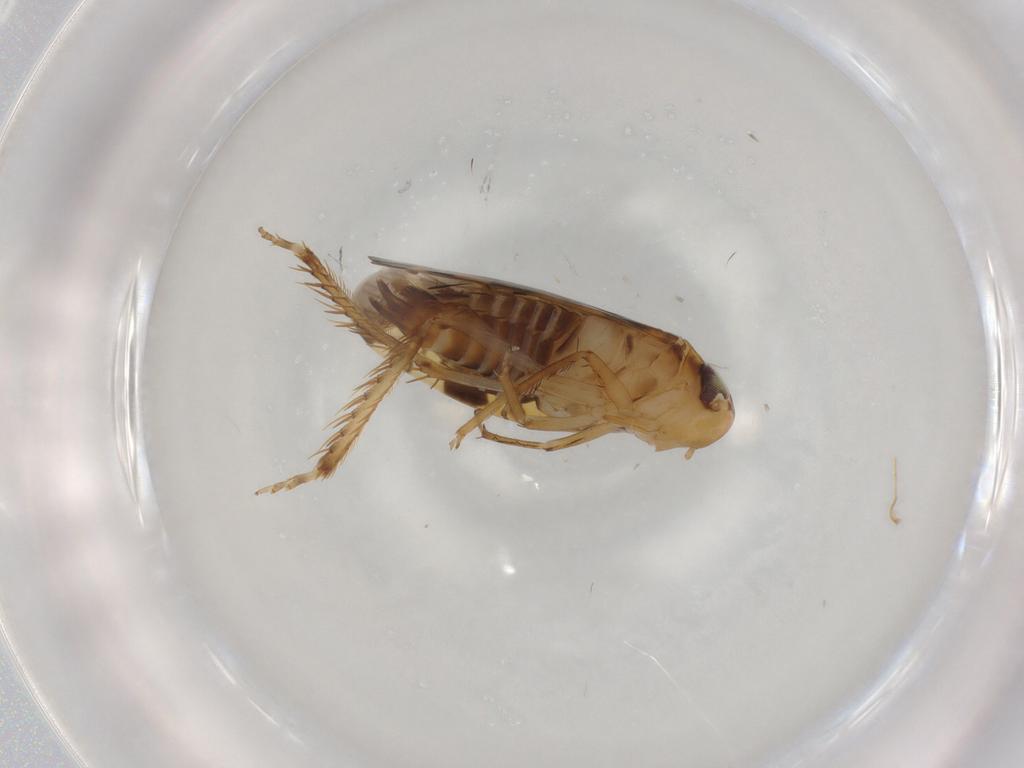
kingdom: Animalia
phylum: Arthropoda
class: Insecta
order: Hemiptera
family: Cicadellidae
